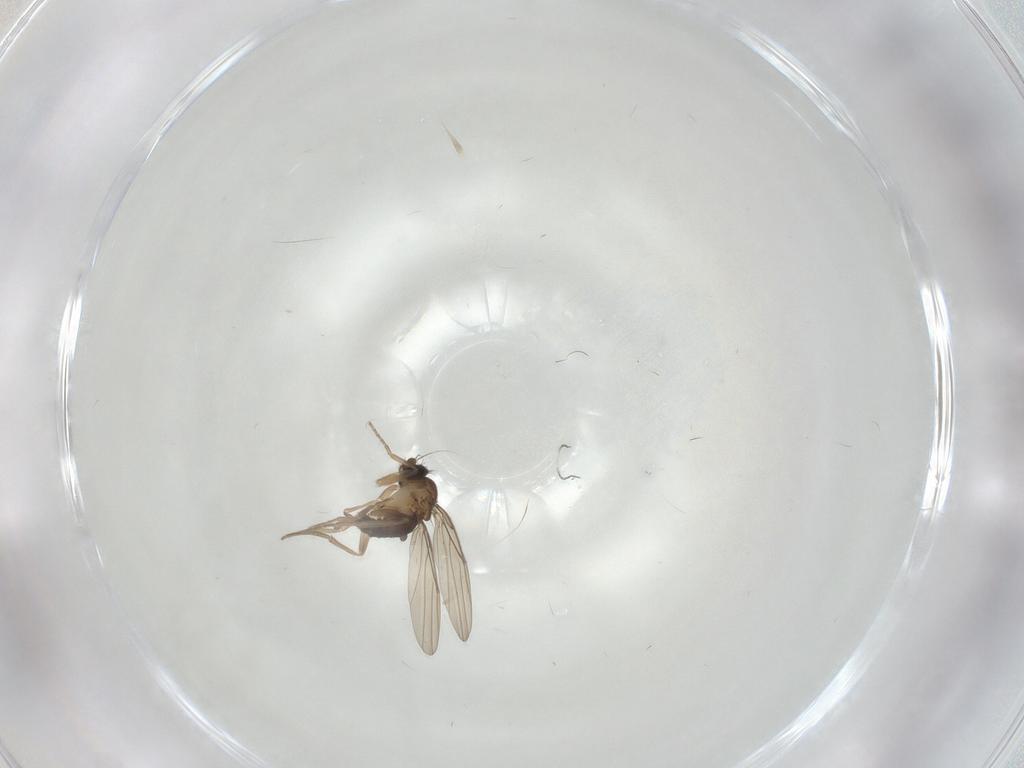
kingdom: Animalia
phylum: Arthropoda
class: Insecta
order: Diptera
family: Phoridae
